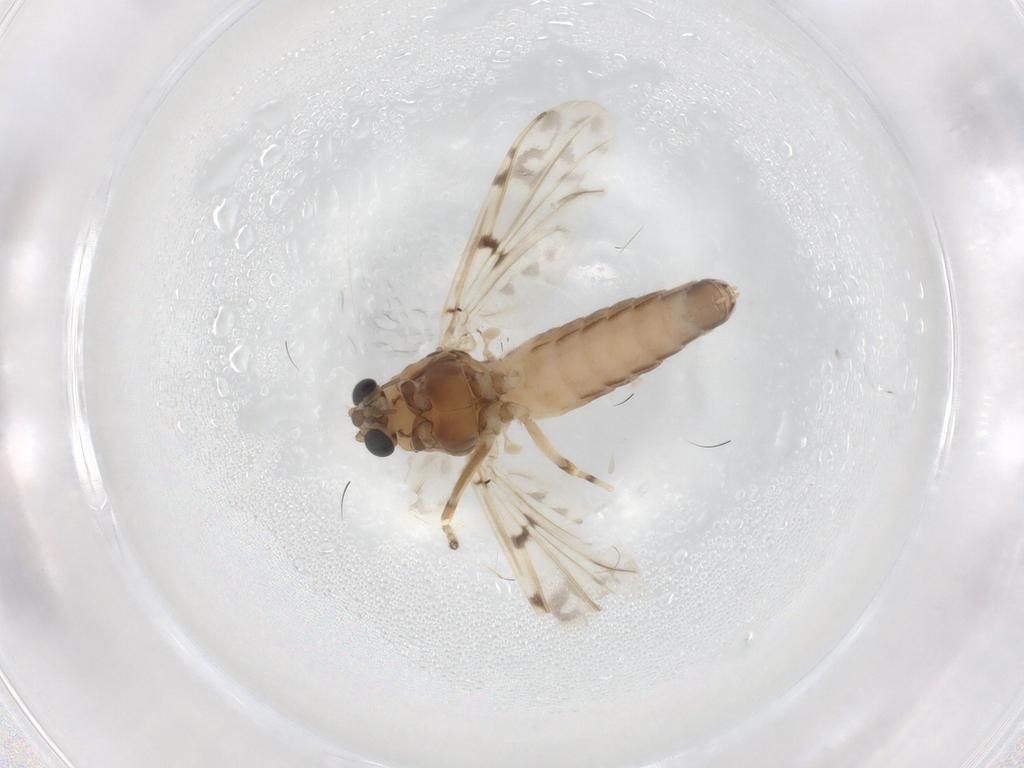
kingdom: Animalia
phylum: Arthropoda
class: Insecta
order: Diptera
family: Chironomidae
